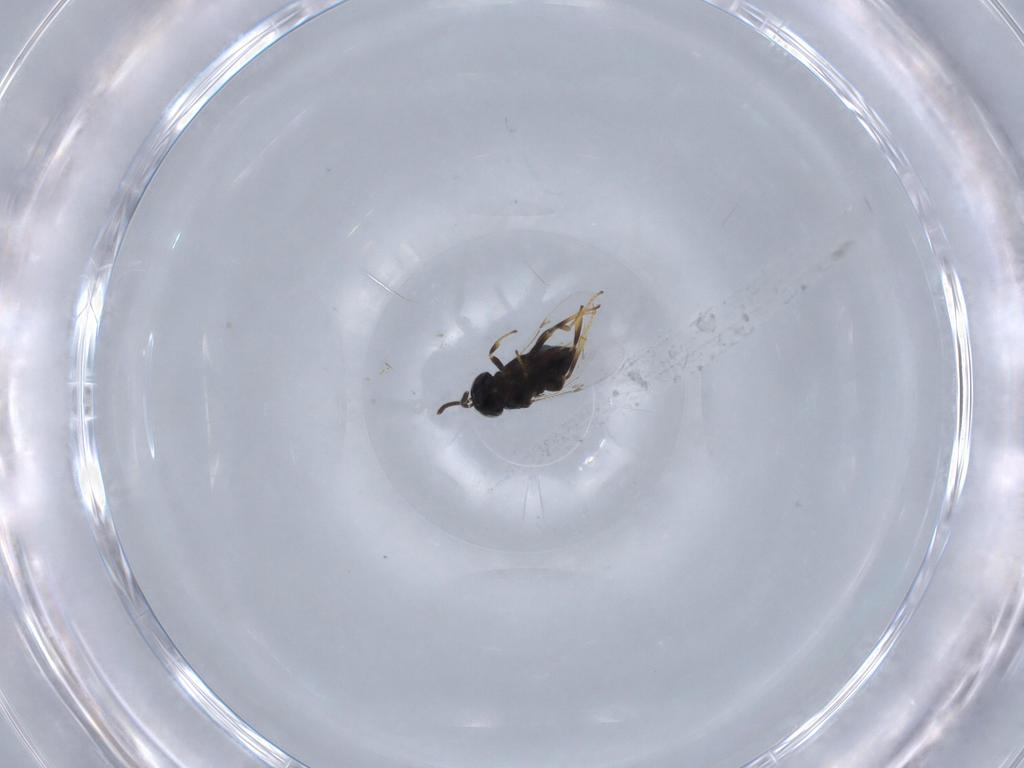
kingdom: Animalia
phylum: Arthropoda
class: Insecta
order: Hymenoptera
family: Encyrtidae
